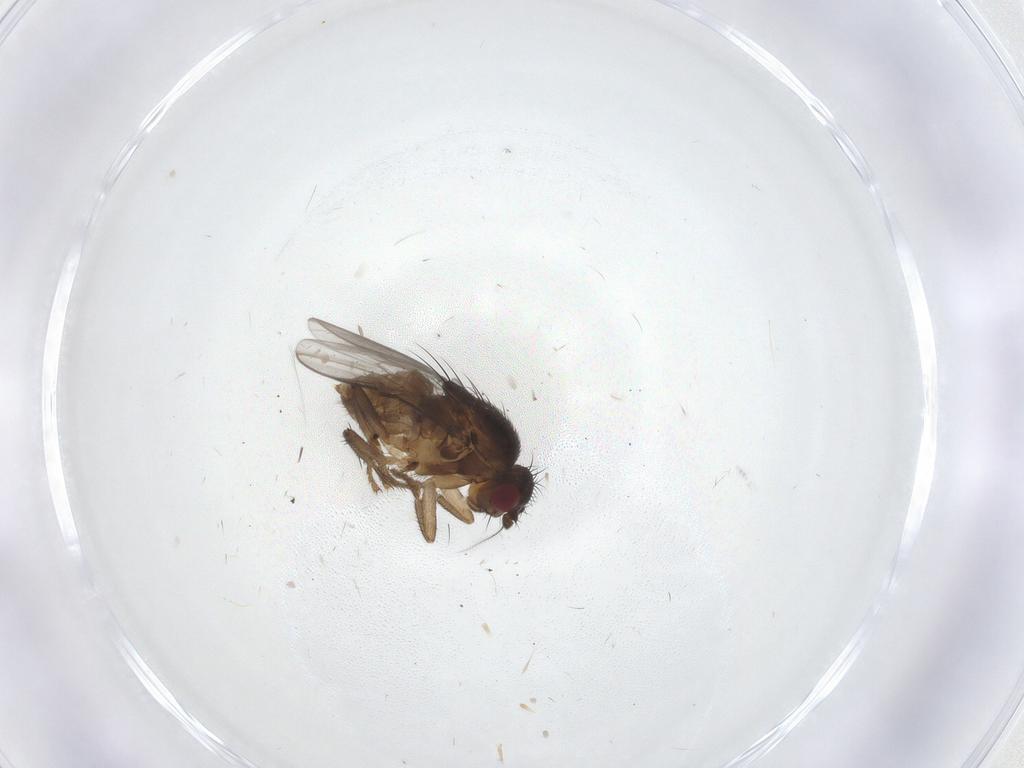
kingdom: Animalia
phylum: Arthropoda
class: Insecta
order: Diptera
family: Sphaeroceridae
